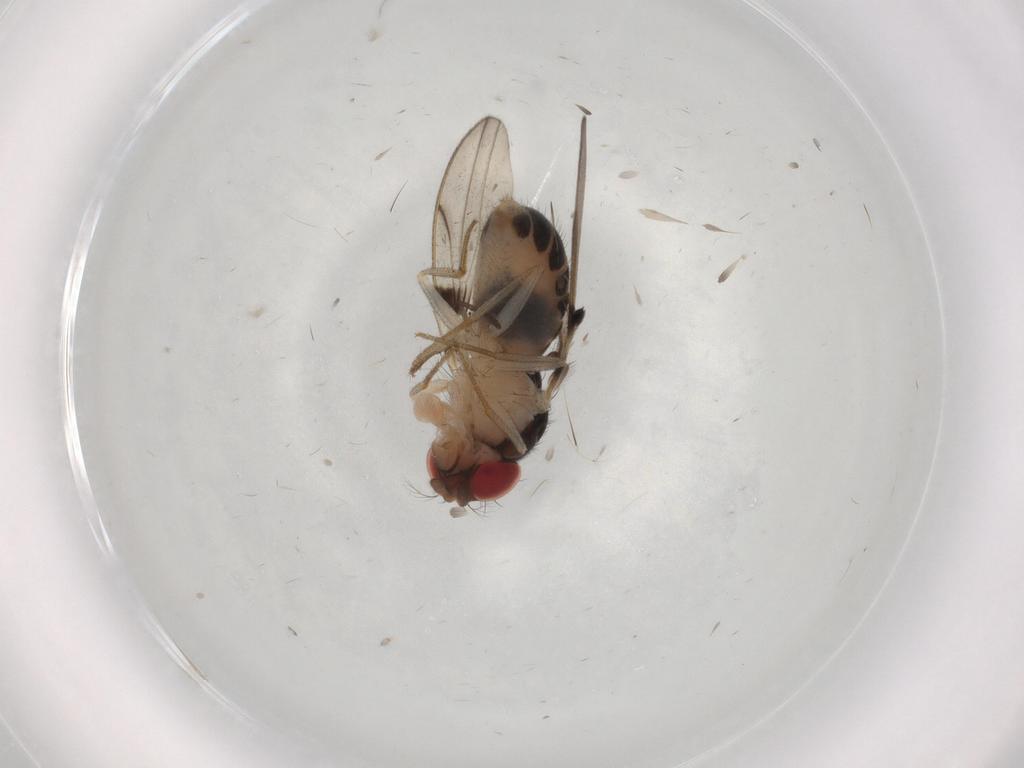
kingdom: Animalia
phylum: Arthropoda
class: Insecta
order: Diptera
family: Drosophilidae
